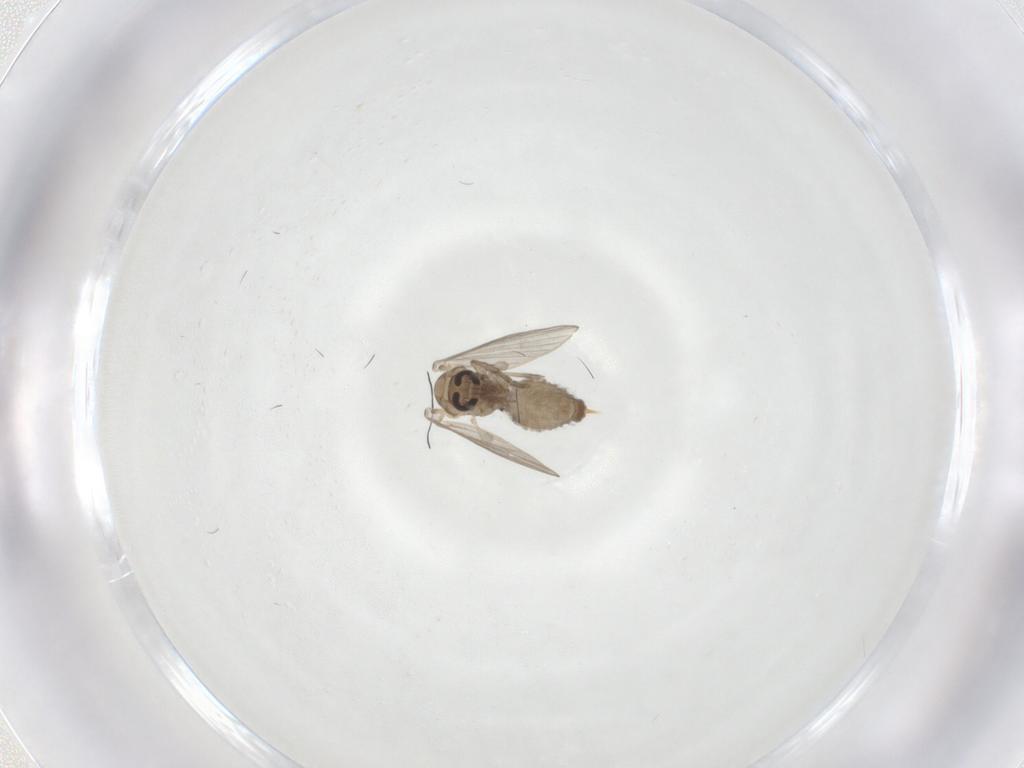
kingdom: Animalia
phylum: Arthropoda
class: Insecta
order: Diptera
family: Psychodidae
